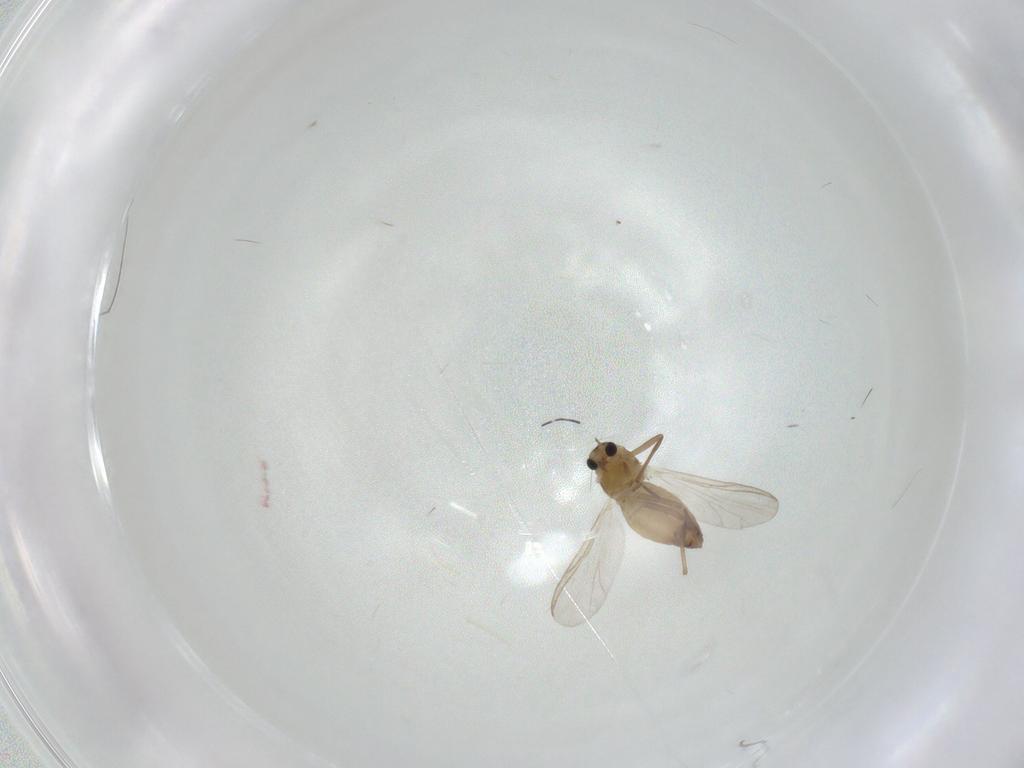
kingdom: Animalia
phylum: Arthropoda
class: Insecta
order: Diptera
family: Chironomidae
